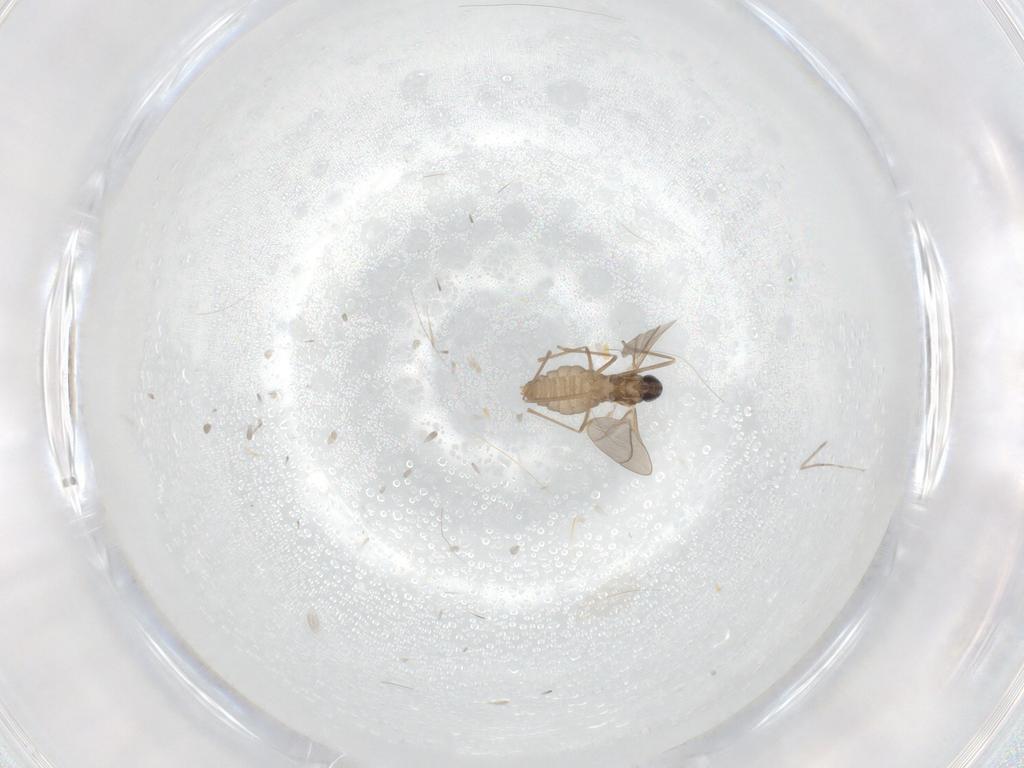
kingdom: Animalia
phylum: Arthropoda
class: Insecta
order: Diptera
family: Cecidomyiidae
